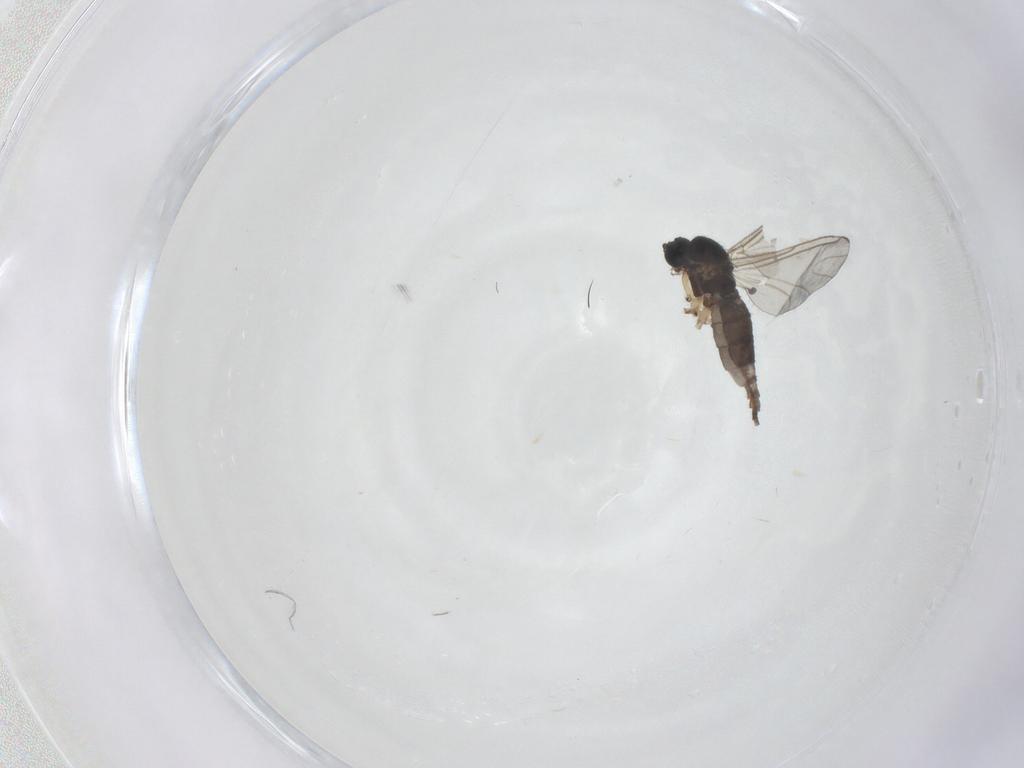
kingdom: Animalia
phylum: Arthropoda
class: Insecta
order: Diptera
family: Sciaridae
